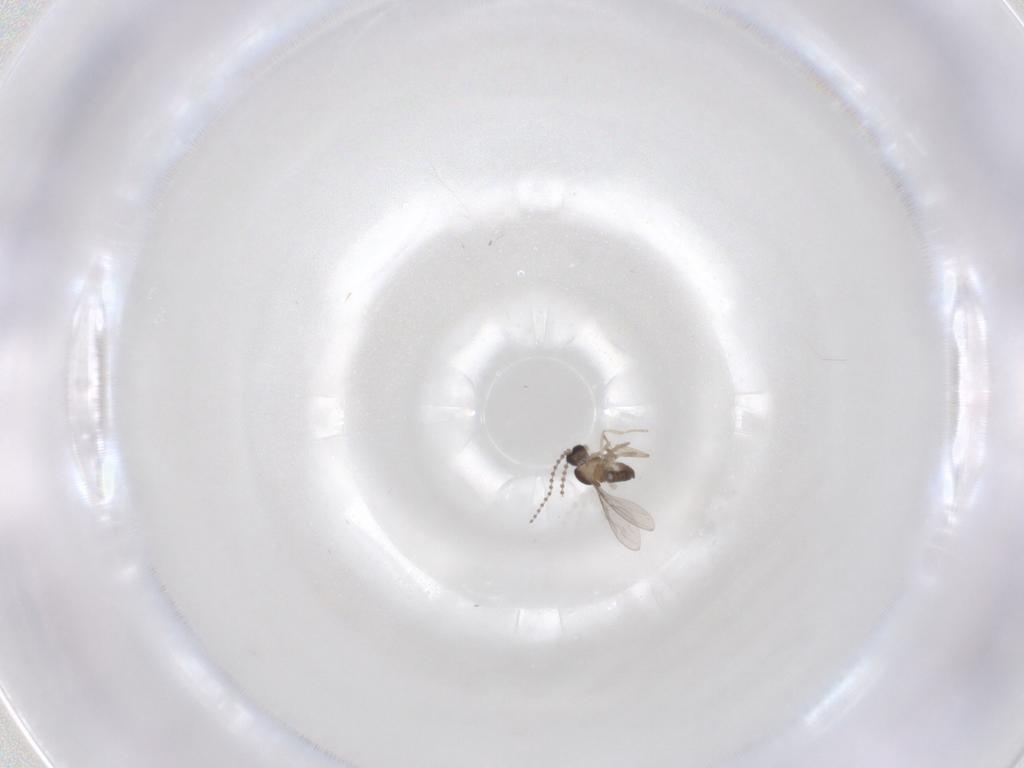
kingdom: Animalia
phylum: Arthropoda
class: Insecta
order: Diptera
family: Cecidomyiidae
